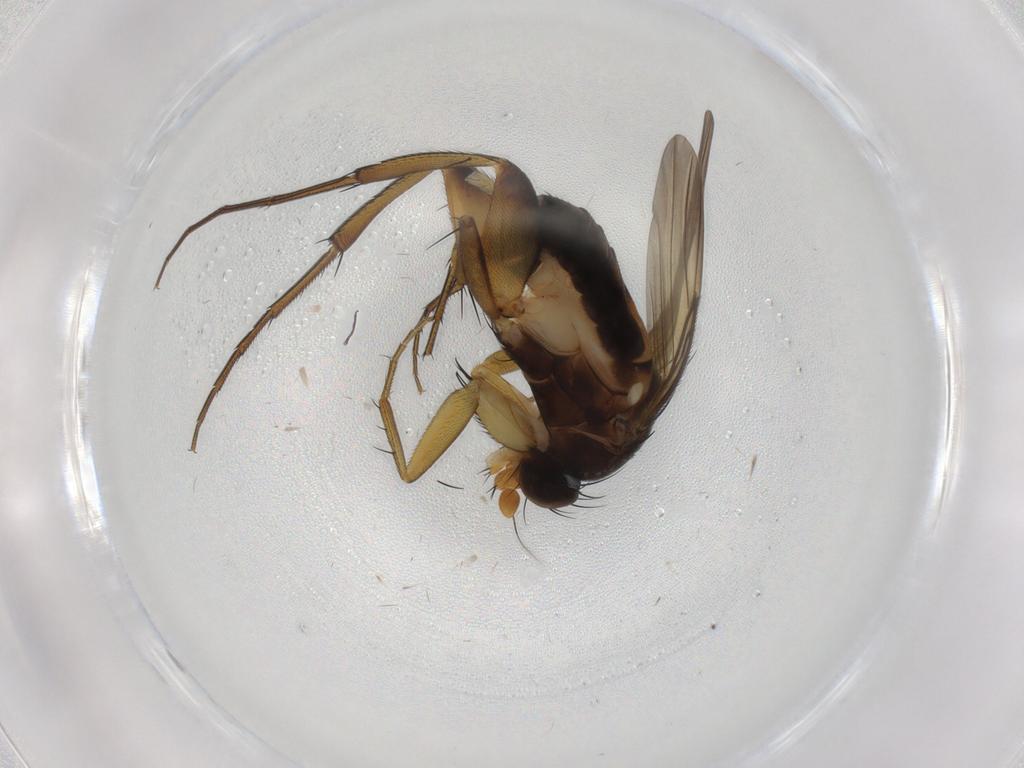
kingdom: Animalia
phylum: Arthropoda
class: Insecta
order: Diptera
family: Phoridae
